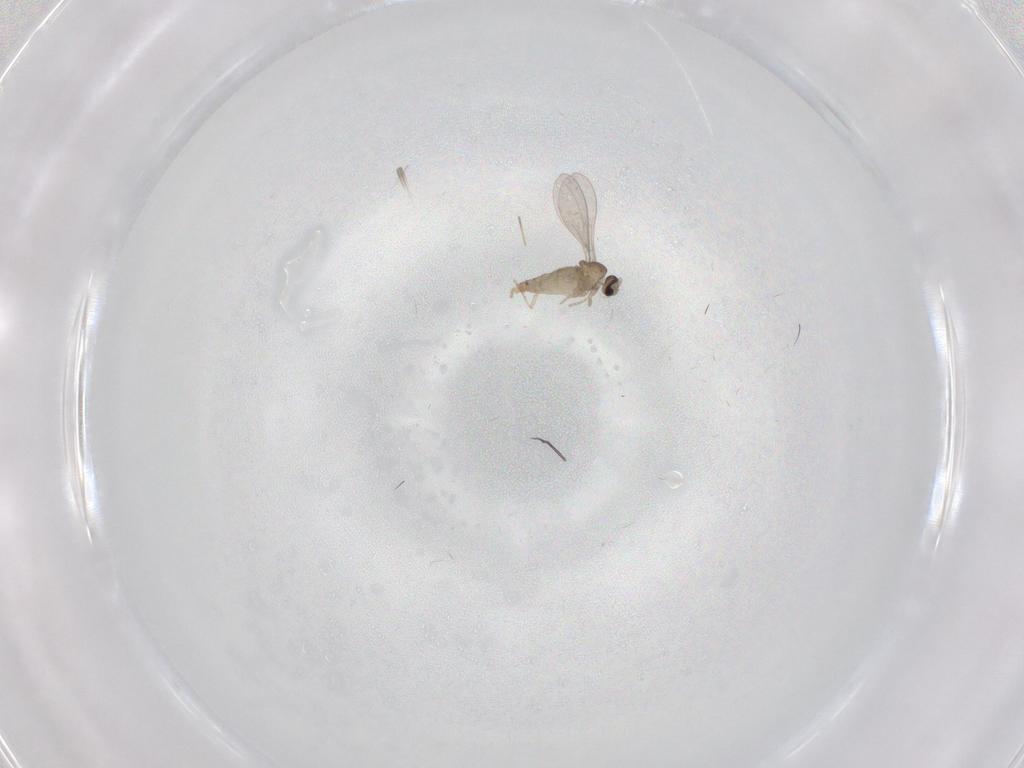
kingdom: Animalia
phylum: Arthropoda
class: Insecta
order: Diptera
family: Cecidomyiidae
